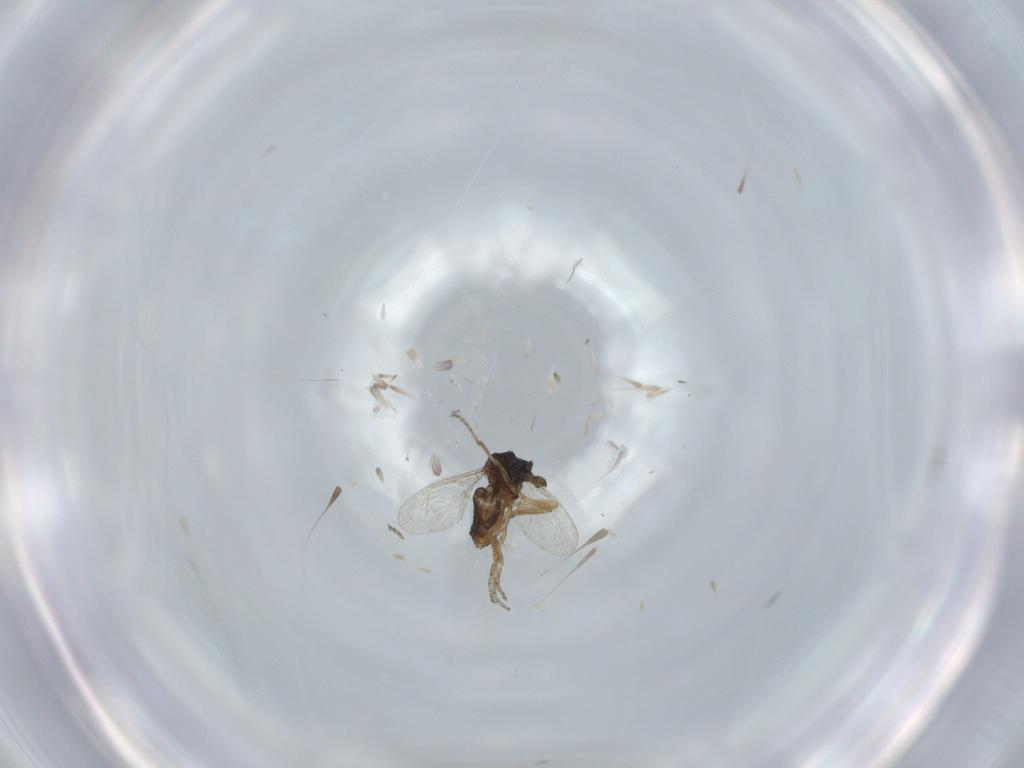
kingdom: Animalia
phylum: Arthropoda
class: Insecta
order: Diptera
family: Ceratopogonidae
